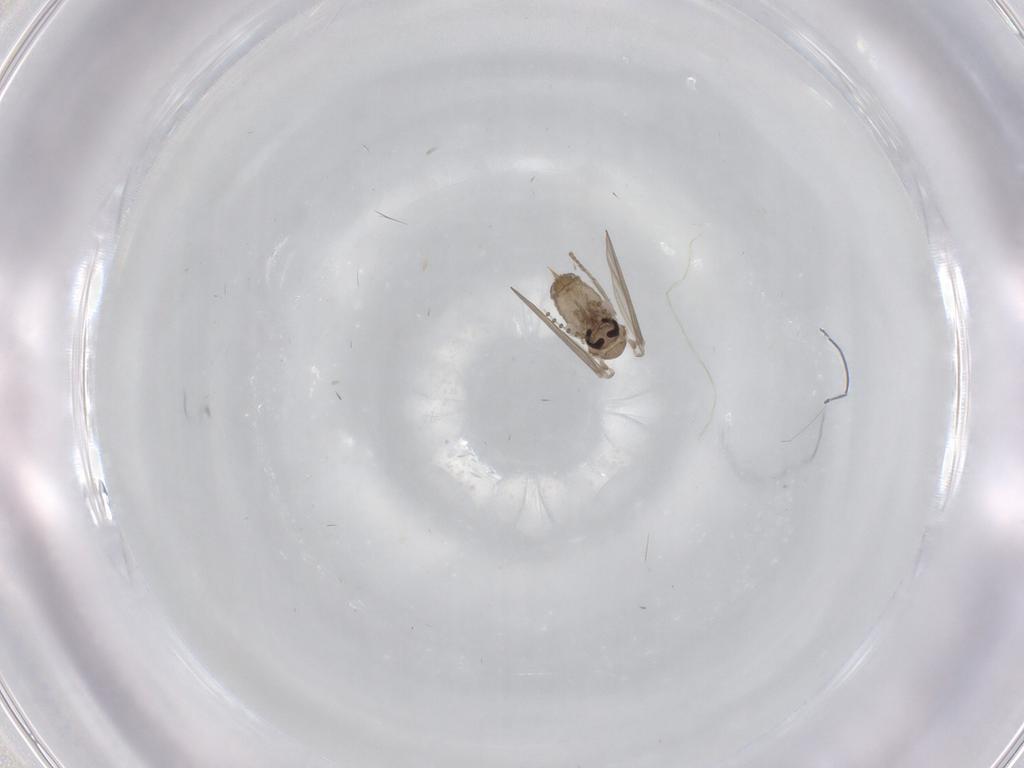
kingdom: Animalia
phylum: Arthropoda
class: Insecta
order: Diptera
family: Psychodidae
